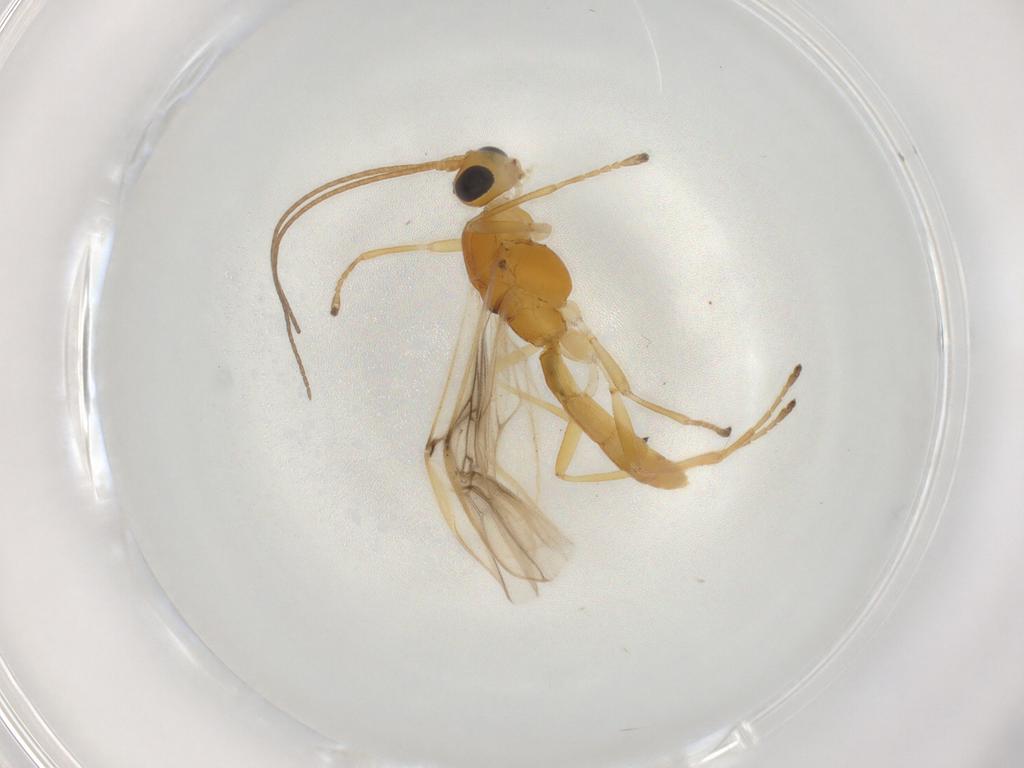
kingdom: Animalia
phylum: Arthropoda
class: Insecta
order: Hymenoptera
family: Braconidae
